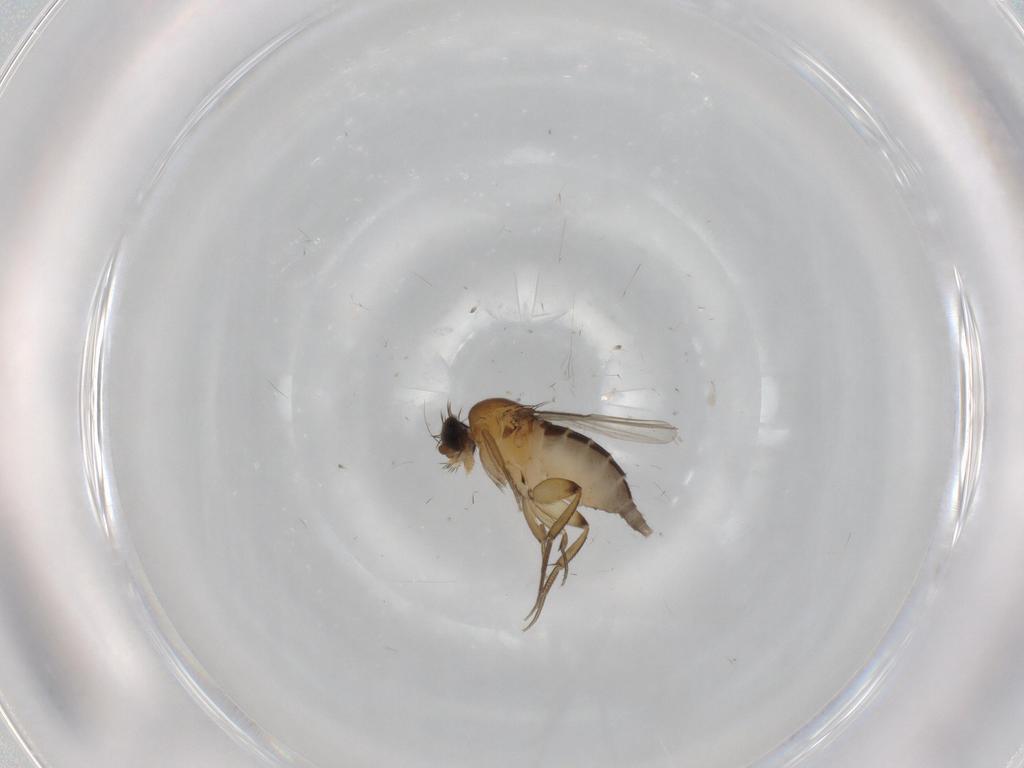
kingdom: Animalia
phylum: Arthropoda
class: Insecta
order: Diptera
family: Phoridae
